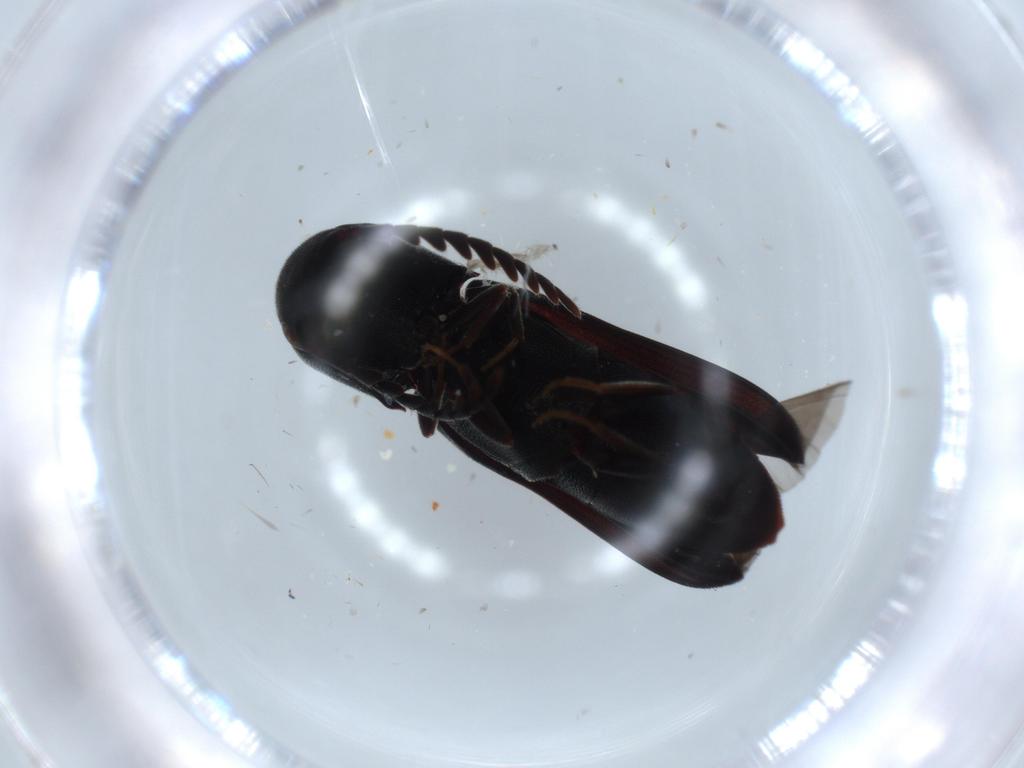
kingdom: Animalia
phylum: Arthropoda
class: Insecta
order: Coleoptera
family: Brentidae
